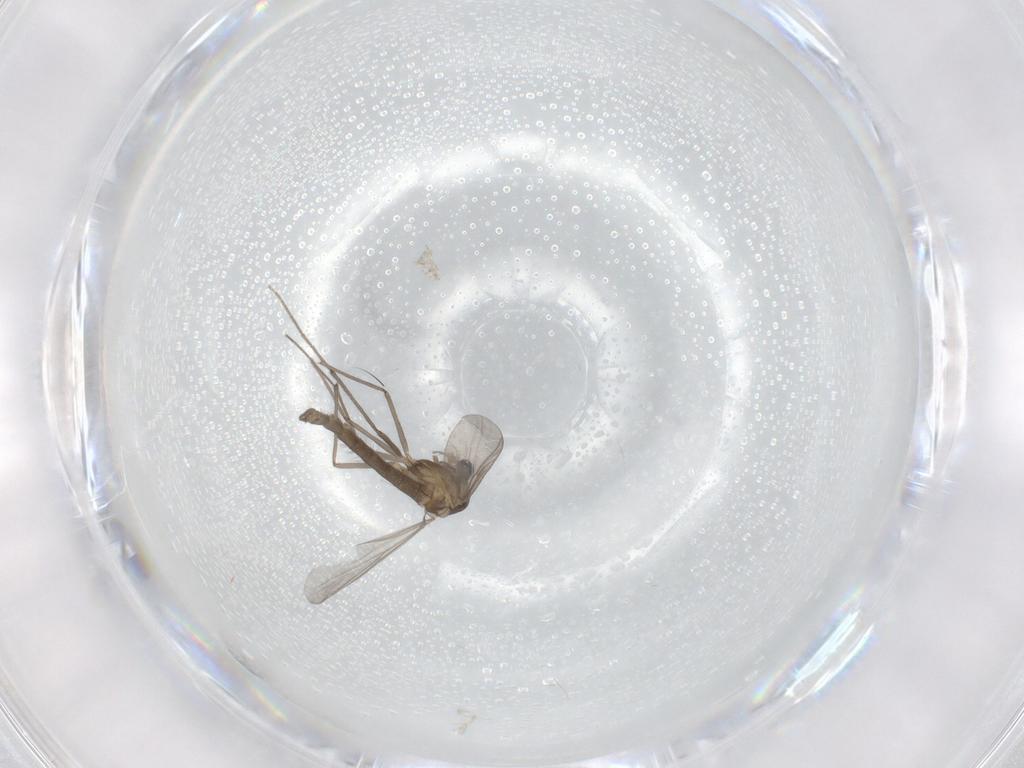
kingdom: Animalia
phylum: Arthropoda
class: Insecta
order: Diptera
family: Chironomidae
